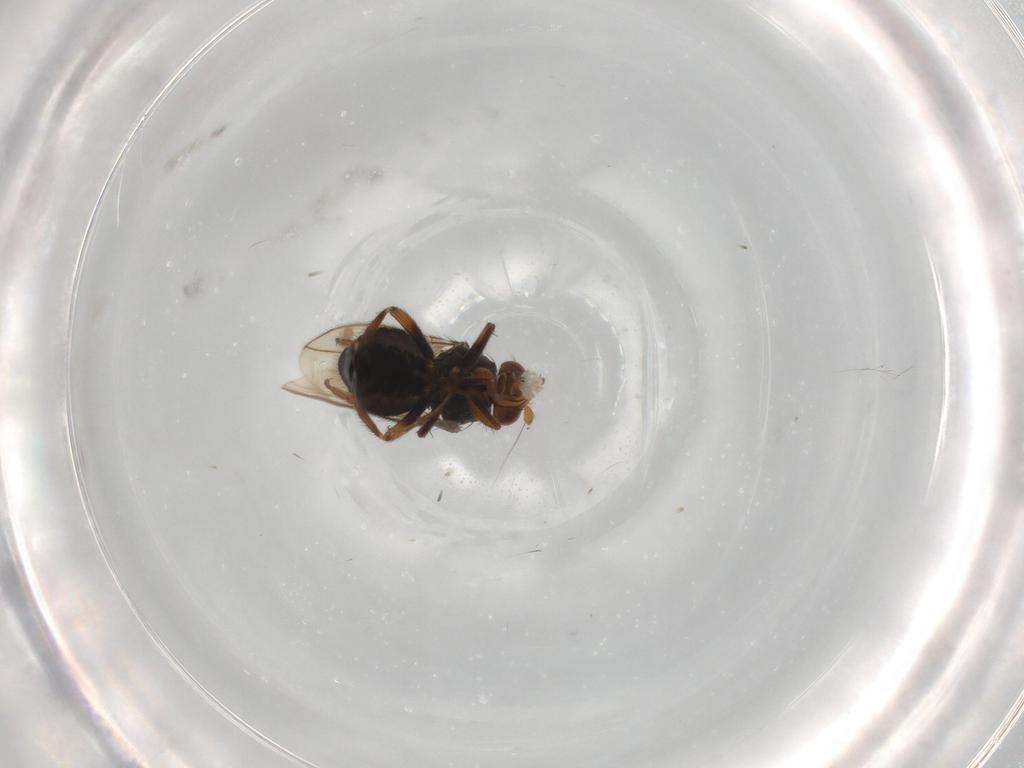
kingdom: Animalia
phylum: Arthropoda
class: Insecta
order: Diptera
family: Sphaeroceridae
